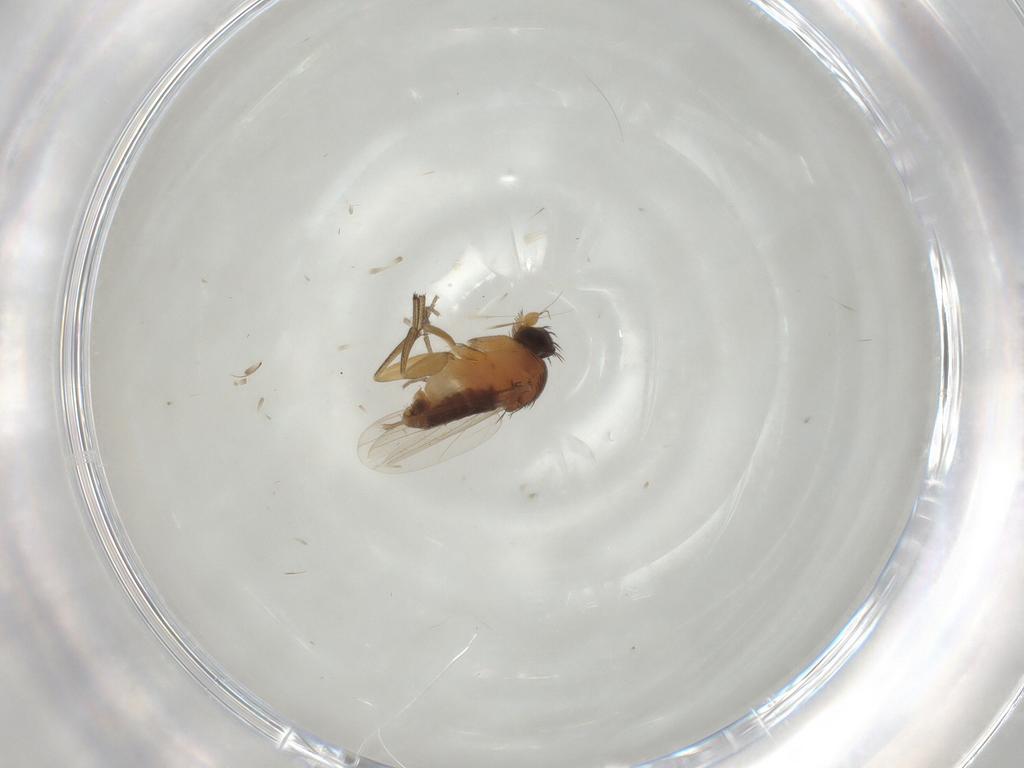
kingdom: Animalia
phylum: Arthropoda
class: Insecta
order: Diptera
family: Phoridae
